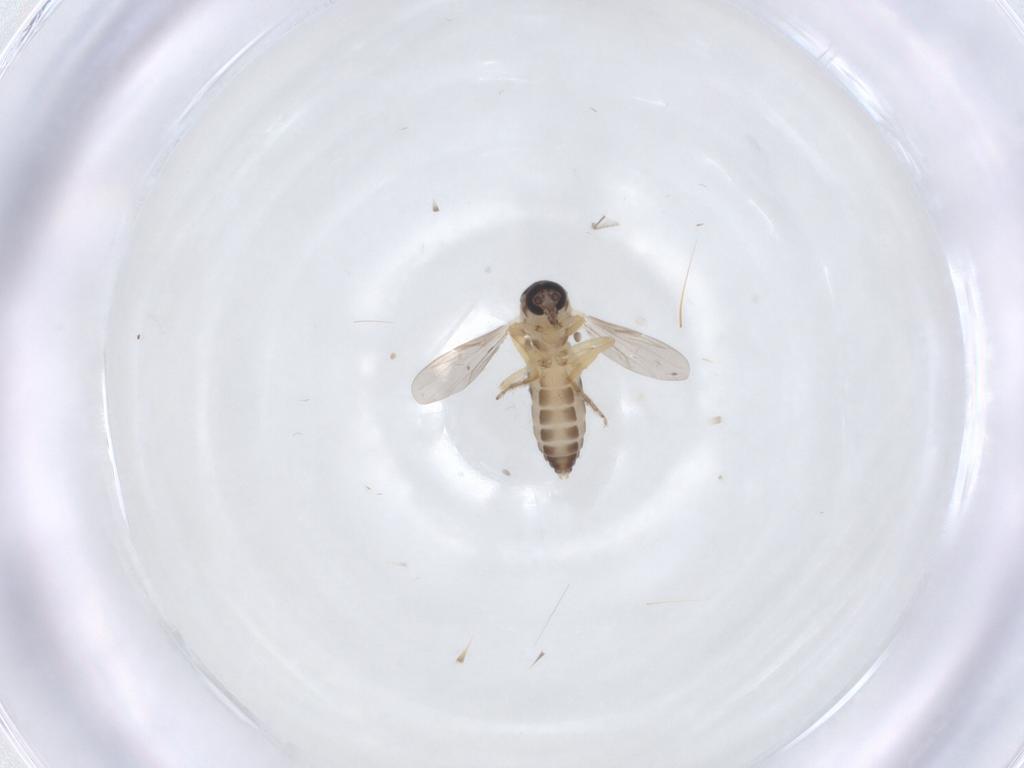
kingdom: Animalia
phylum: Arthropoda
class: Insecta
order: Diptera
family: Ceratopogonidae
